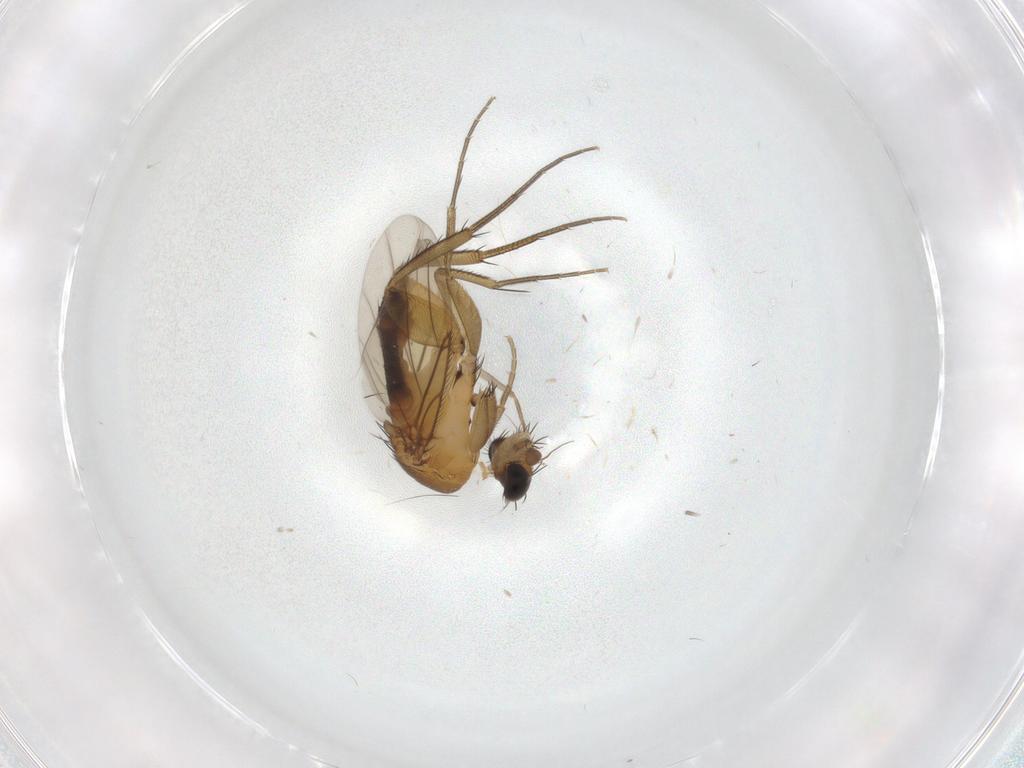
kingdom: Animalia
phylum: Arthropoda
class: Insecta
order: Diptera
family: Phoridae
